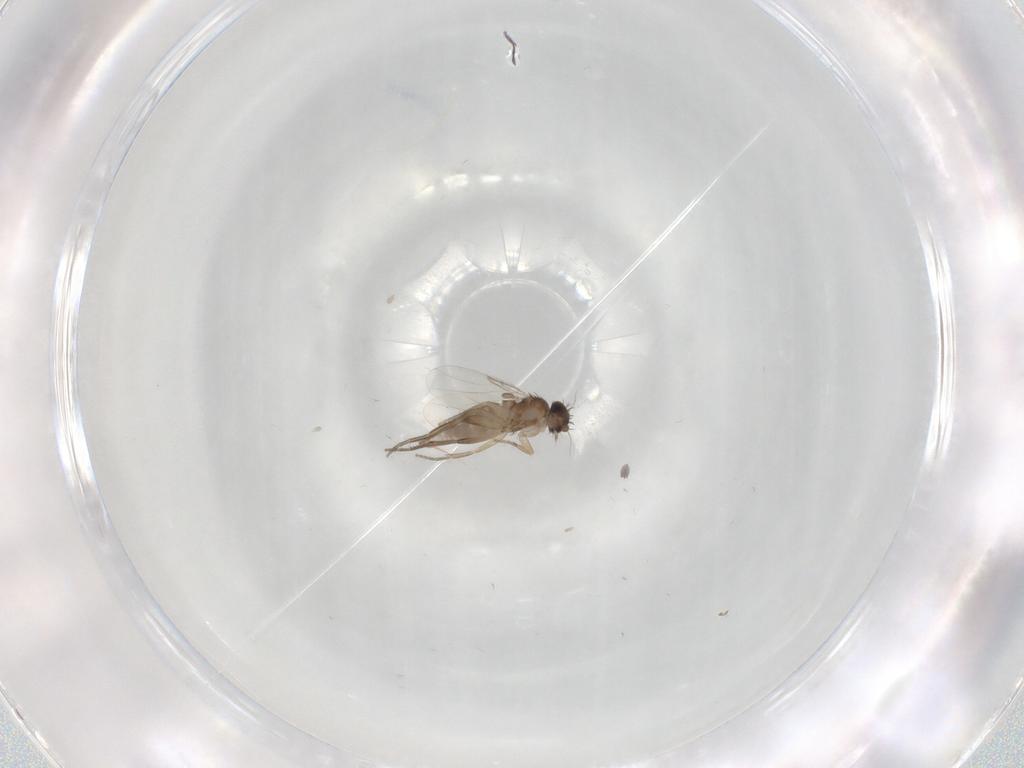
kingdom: Animalia
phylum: Arthropoda
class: Insecta
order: Diptera
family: Phoridae
